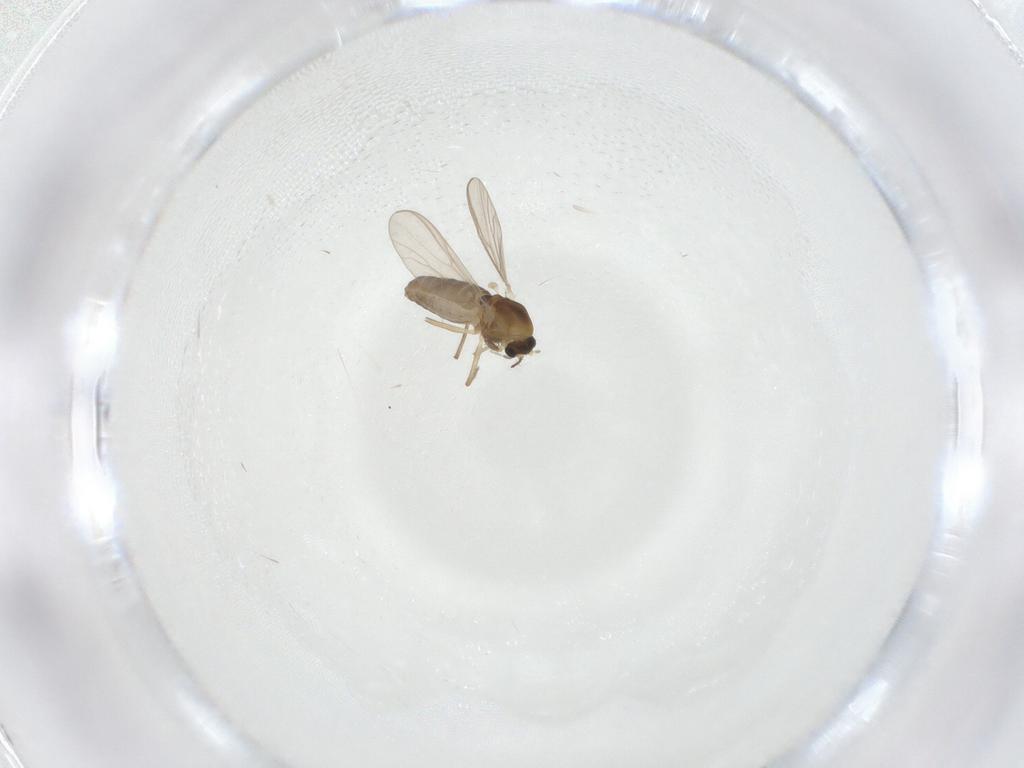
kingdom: Animalia
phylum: Arthropoda
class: Insecta
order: Diptera
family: Chironomidae
